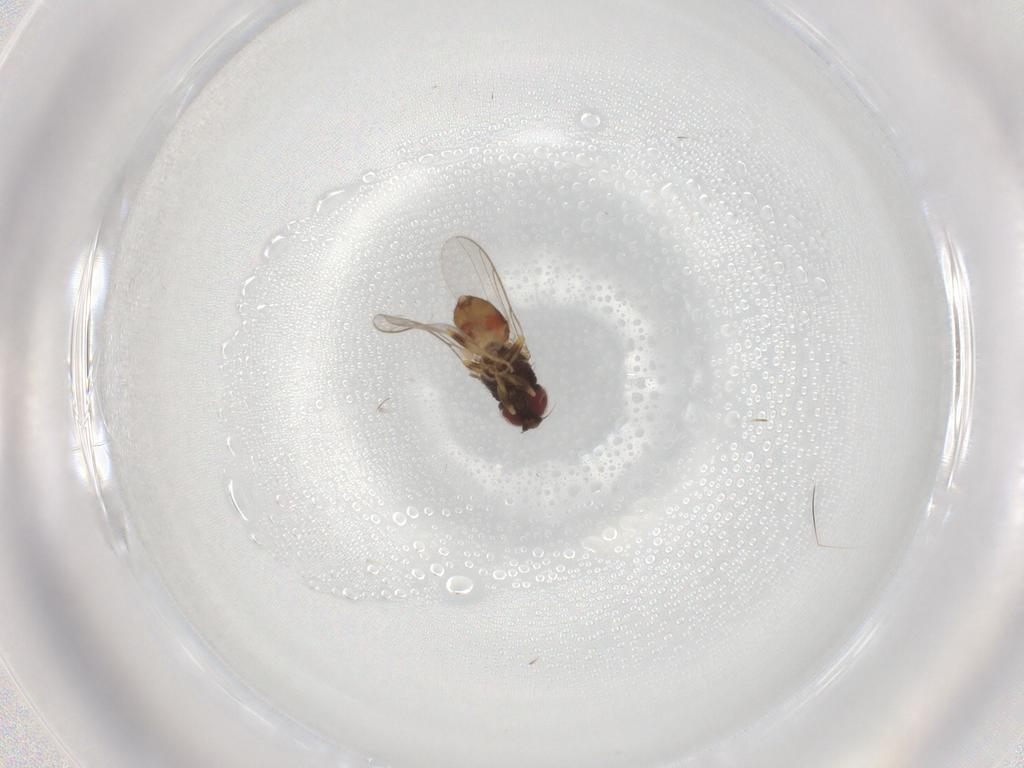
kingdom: Animalia
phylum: Arthropoda
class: Insecta
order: Diptera
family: Chloropidae
